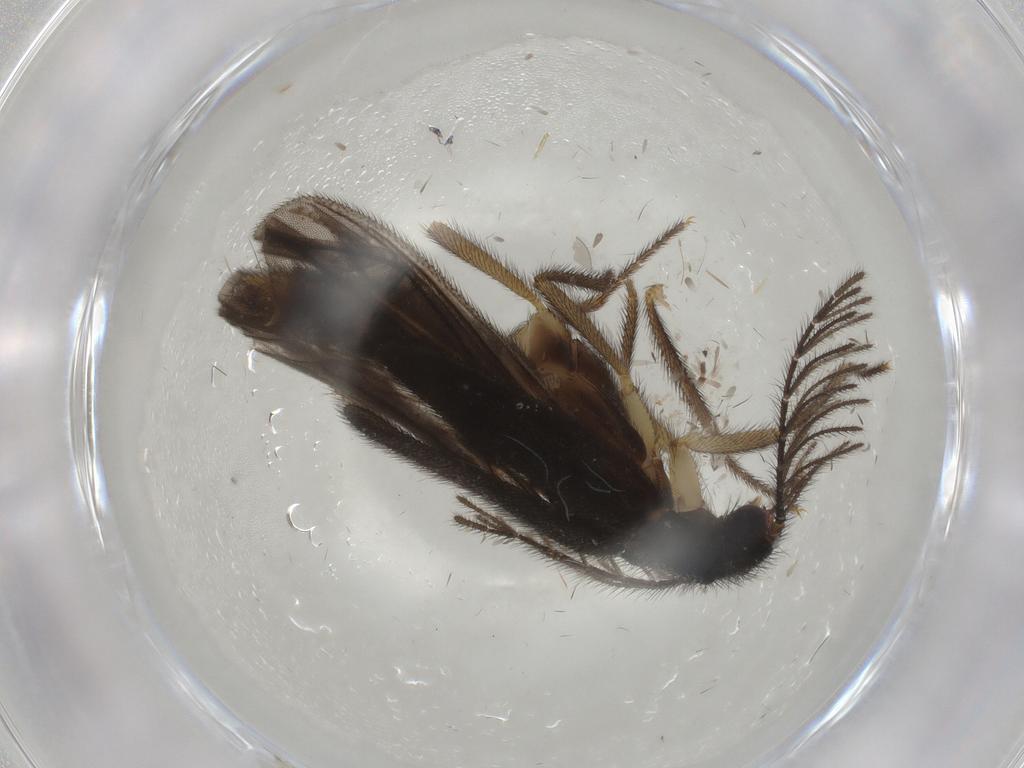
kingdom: Animalia
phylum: Arthropoda
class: Insecta
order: Coleoptera
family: Lycidae
